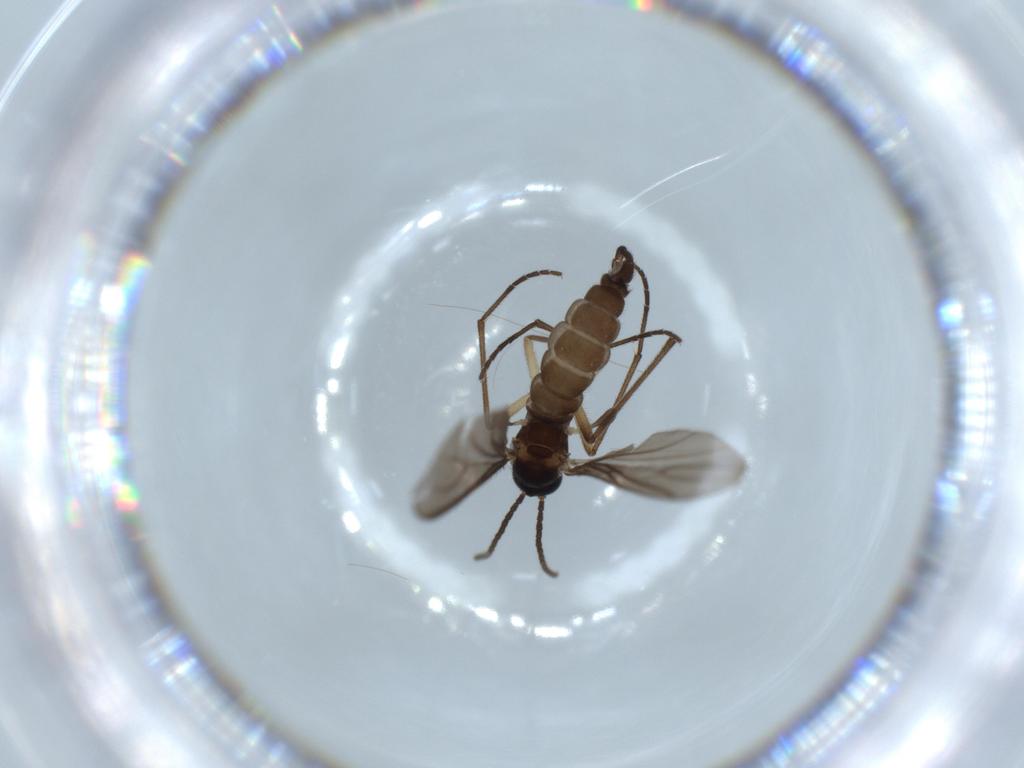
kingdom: Animalia
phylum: Arthropoda
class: Insecta
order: Diptera
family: Sciaridae
